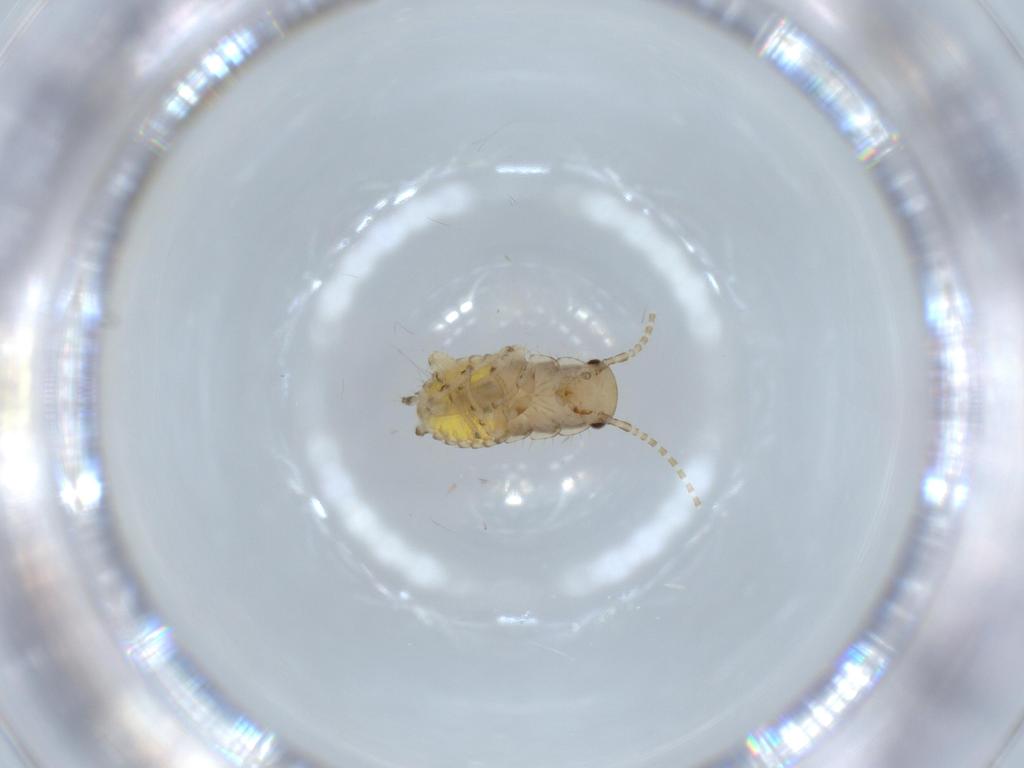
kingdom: Animalia
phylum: Arthropoda
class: Insecta
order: Blattodea
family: Ectobiidae
